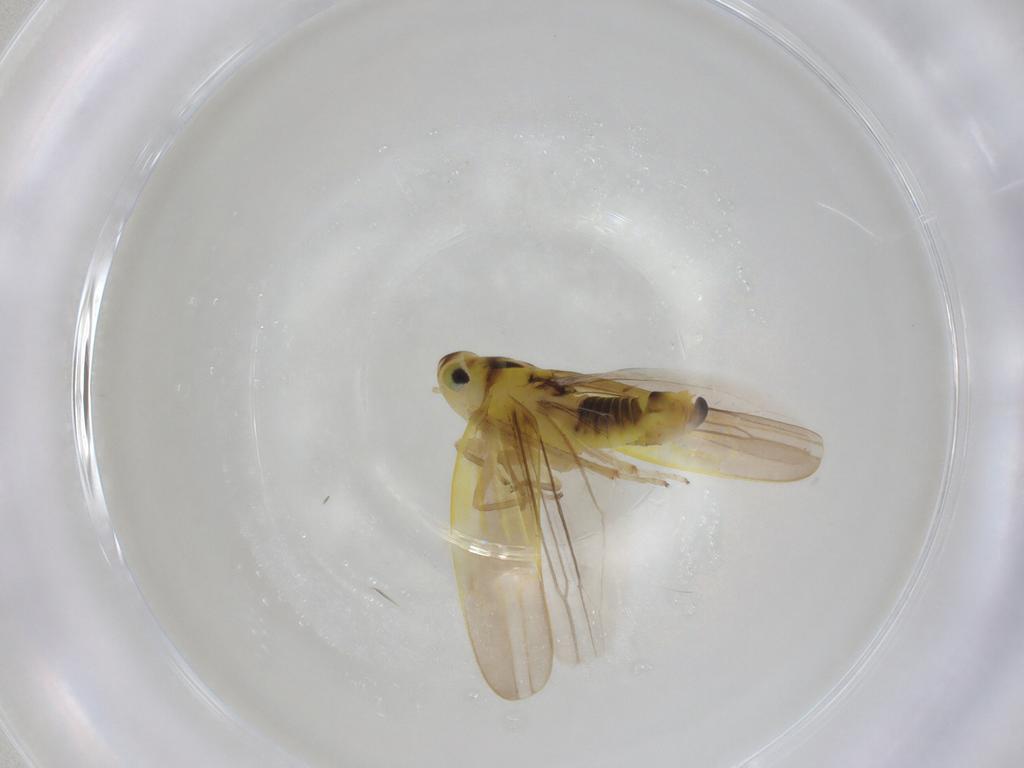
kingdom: Animalia
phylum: Arthropoda
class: Insecta
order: Hemiptera
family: Cicadellidae
